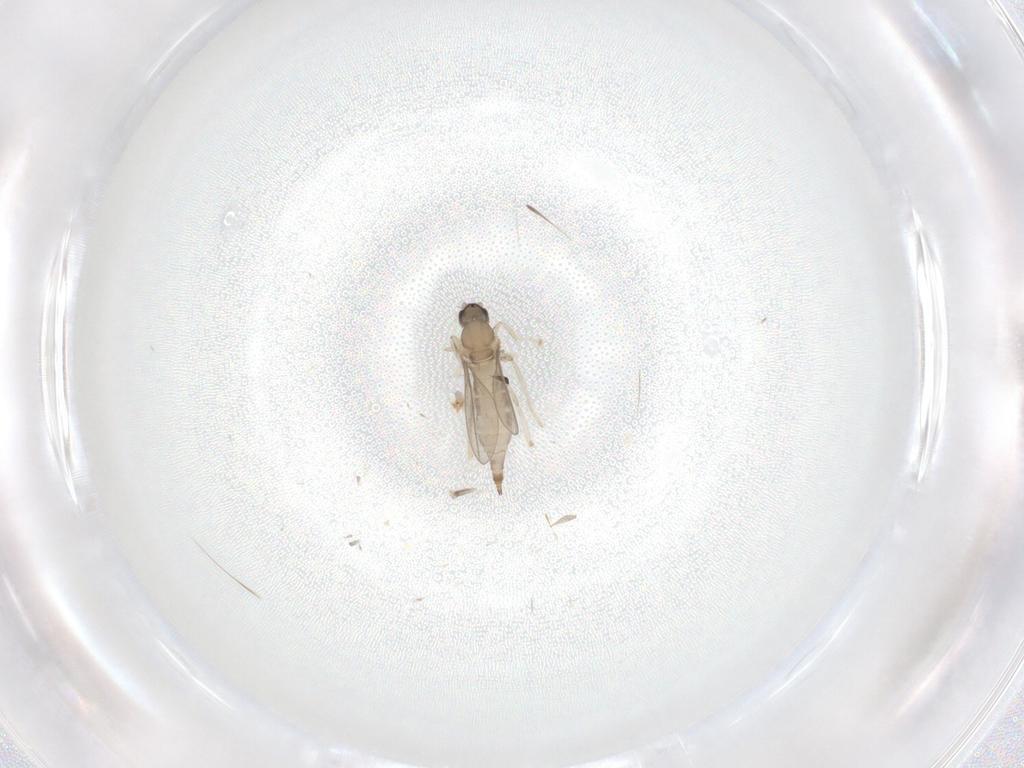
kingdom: Animalia
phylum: Arthropoda
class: Insecta
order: Diptera
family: Cecidomyiidae
